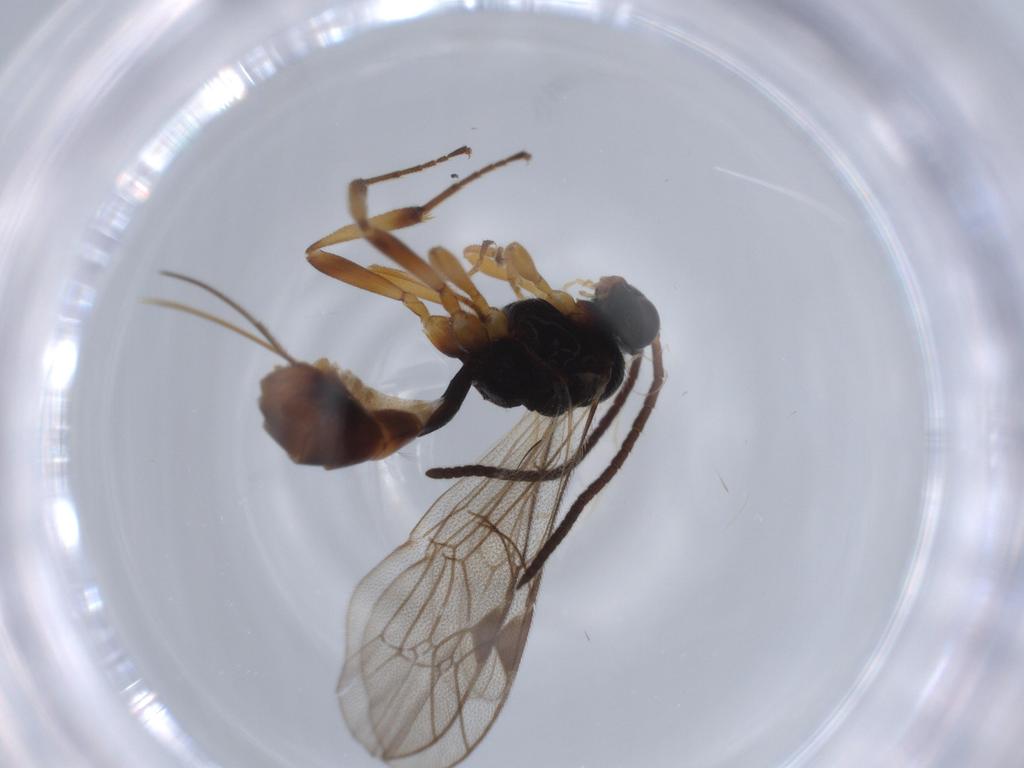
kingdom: Animalia
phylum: Arthropoda
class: Insecta
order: Hymenoptera
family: Ichneumonidae
